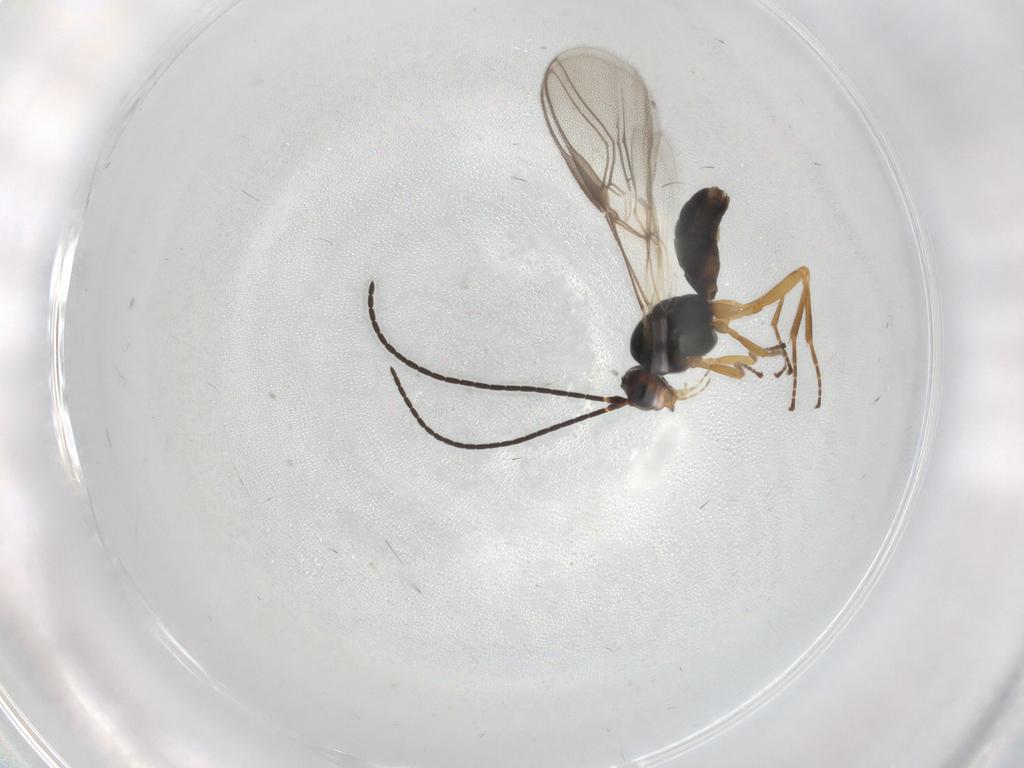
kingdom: Animalia
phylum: Arthropoda
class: Insecta
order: Hymenoptera
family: Braconidae
